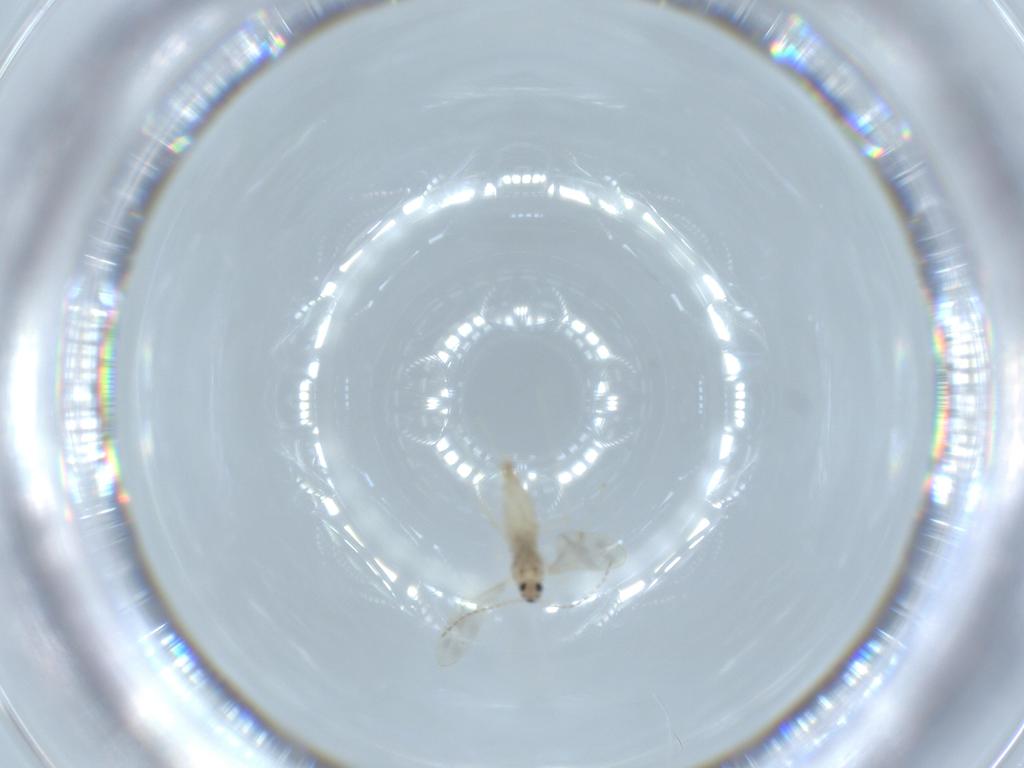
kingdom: Animalia
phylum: Arthropoda
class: Insecta
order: Diptera
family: Cecidomyiidae
